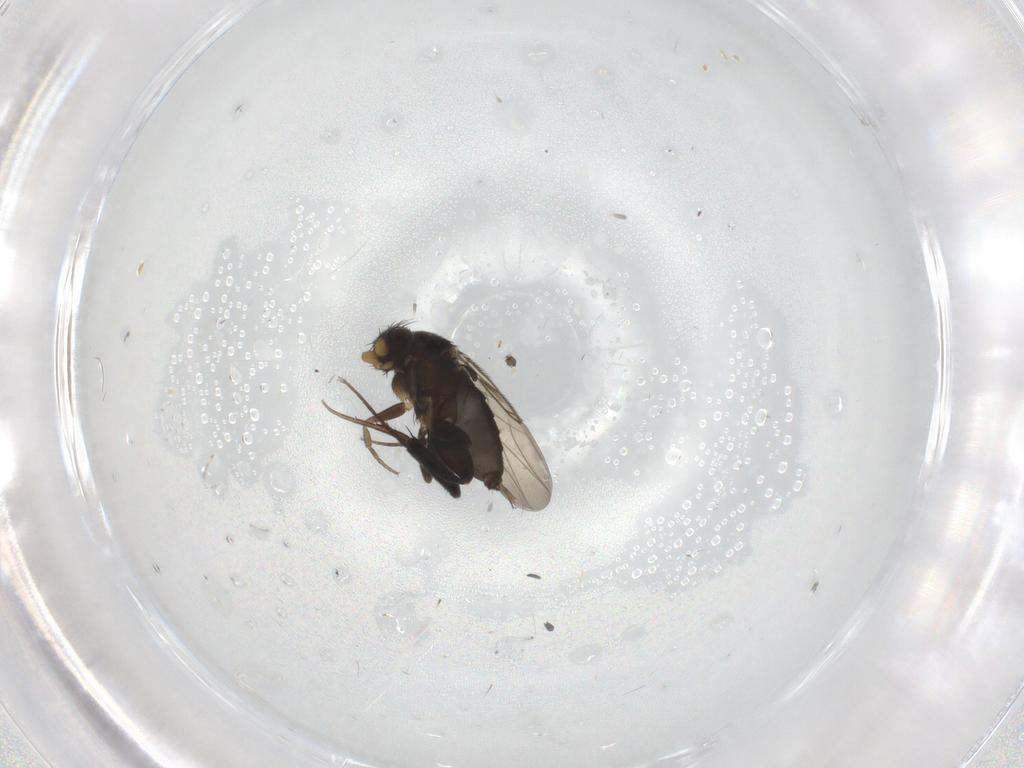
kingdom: Animalia
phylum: Arthropoda
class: Insecta
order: Diptera
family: Phoridae
